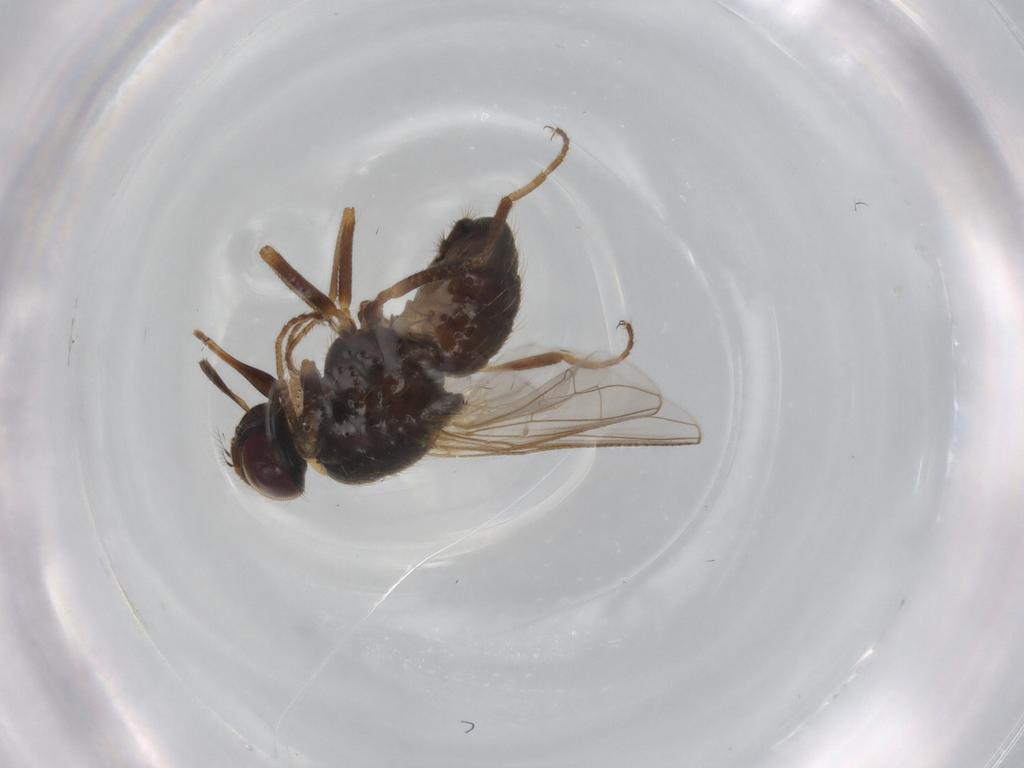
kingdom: Animalia
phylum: Arthropoda
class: Insecta
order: Diptera
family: Muscidae
